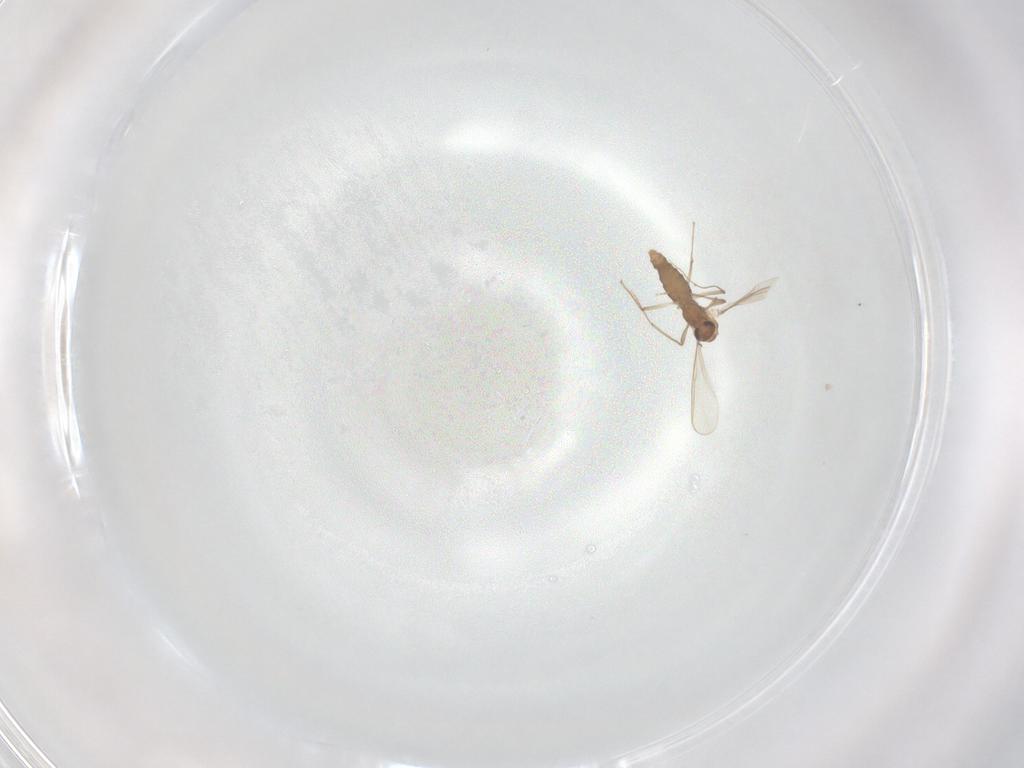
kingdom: Animalia
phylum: Arthropoda
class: Insecta
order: Diptera
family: Chironomidae
